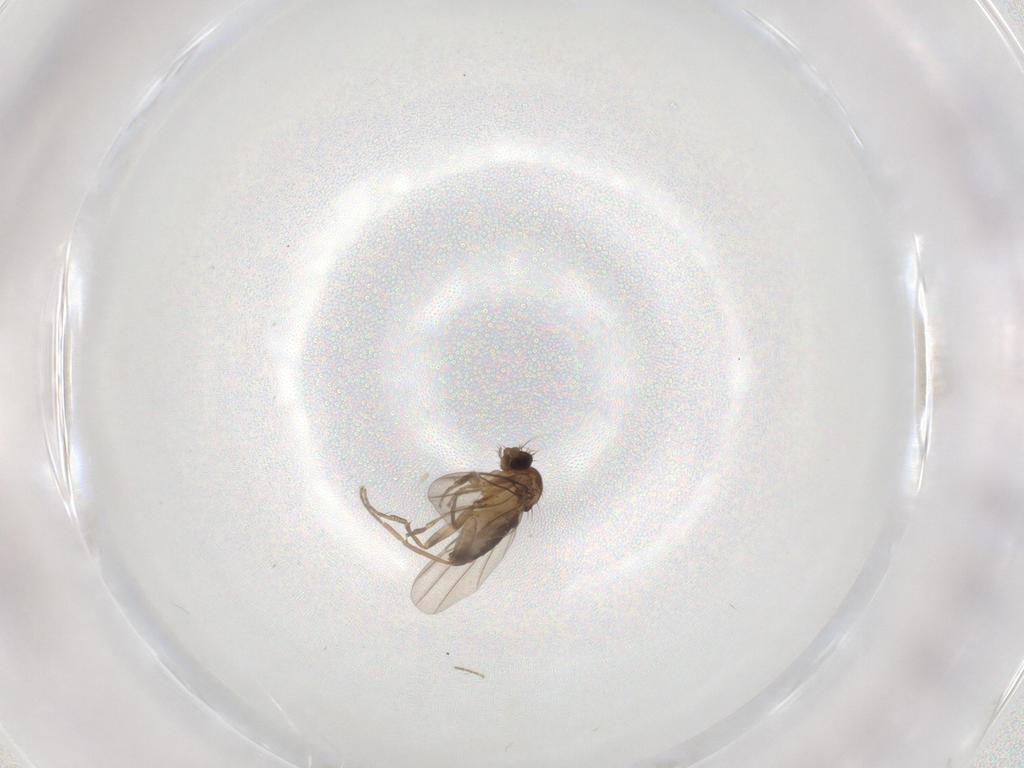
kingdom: Animalia
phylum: Arthropoda
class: Insecta
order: Diptera
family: Phoridae
